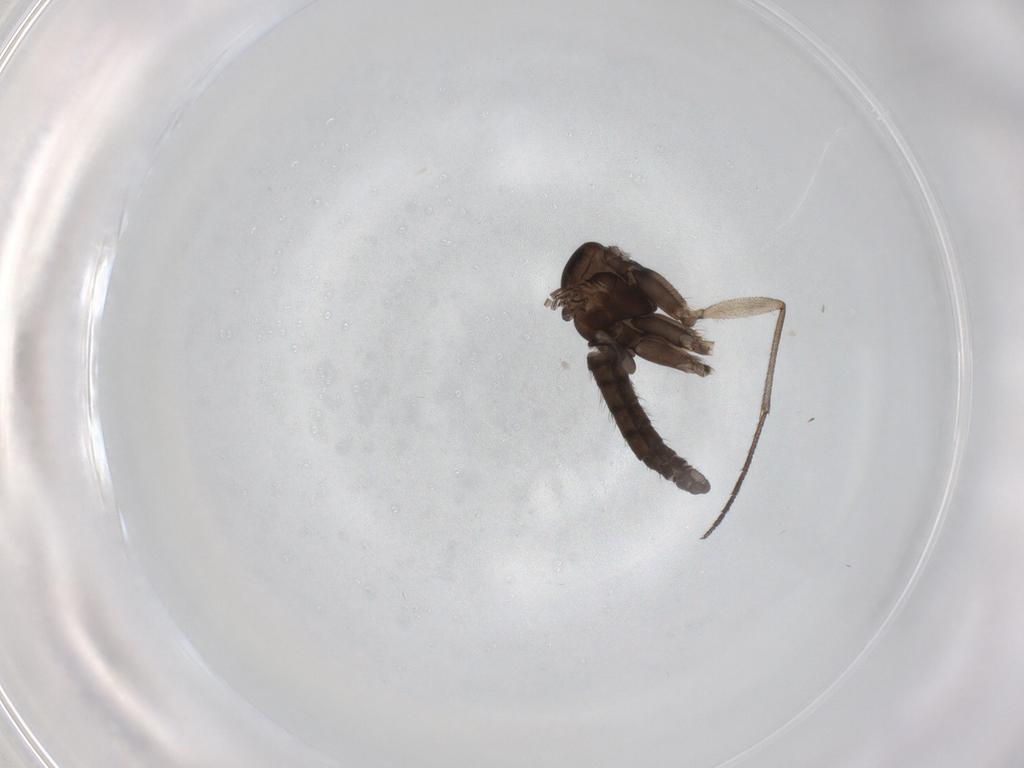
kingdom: Animalia
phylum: Arthropoda
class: Insecta
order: Diptera
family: Sciaridae
